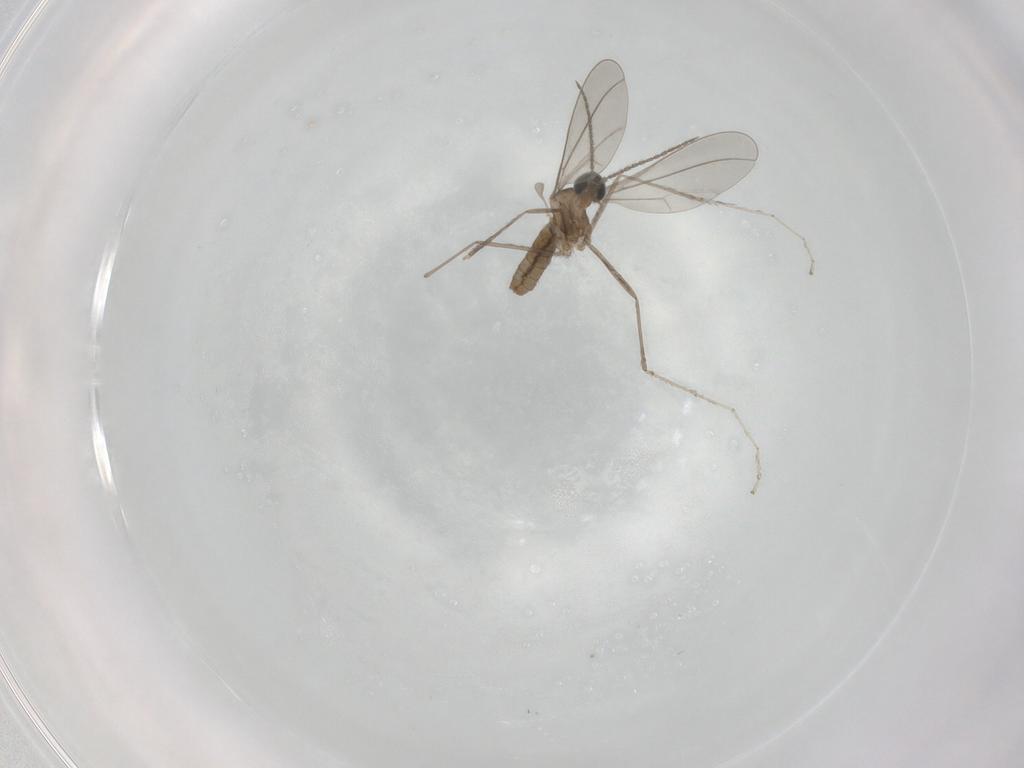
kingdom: Animalia
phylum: Arthropoda
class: Insecta
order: Diptera
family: Cecidomyiidae
